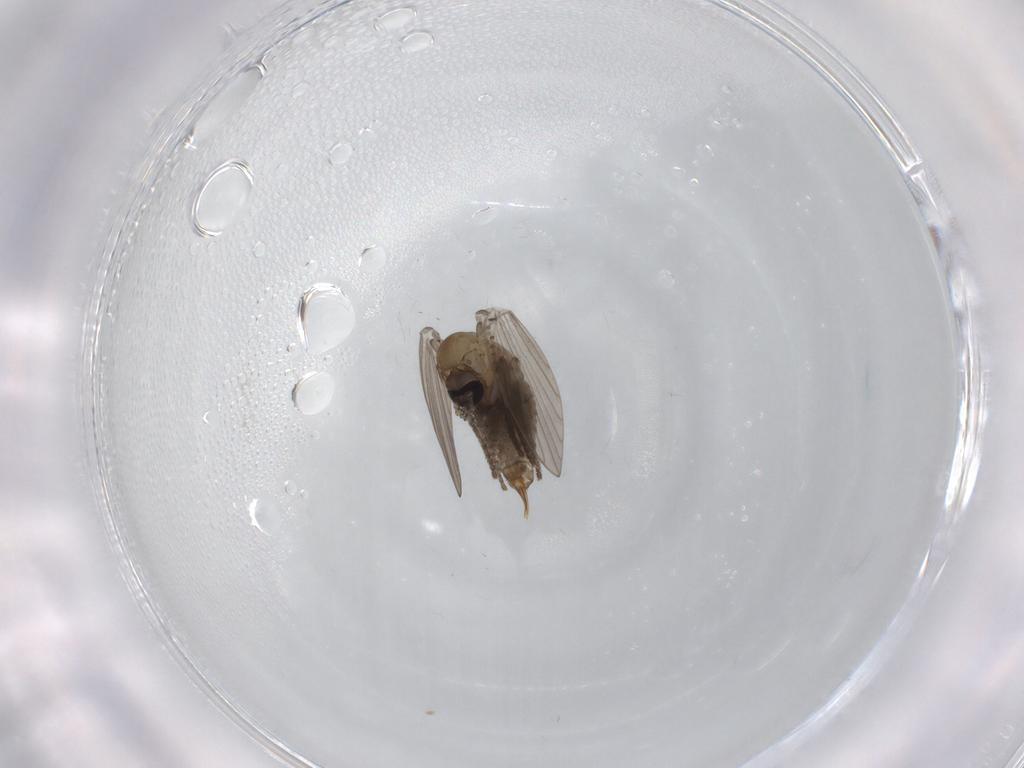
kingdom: Animalia
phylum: Arthropoda
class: Insecta
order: Diptera
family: Psychodidae
